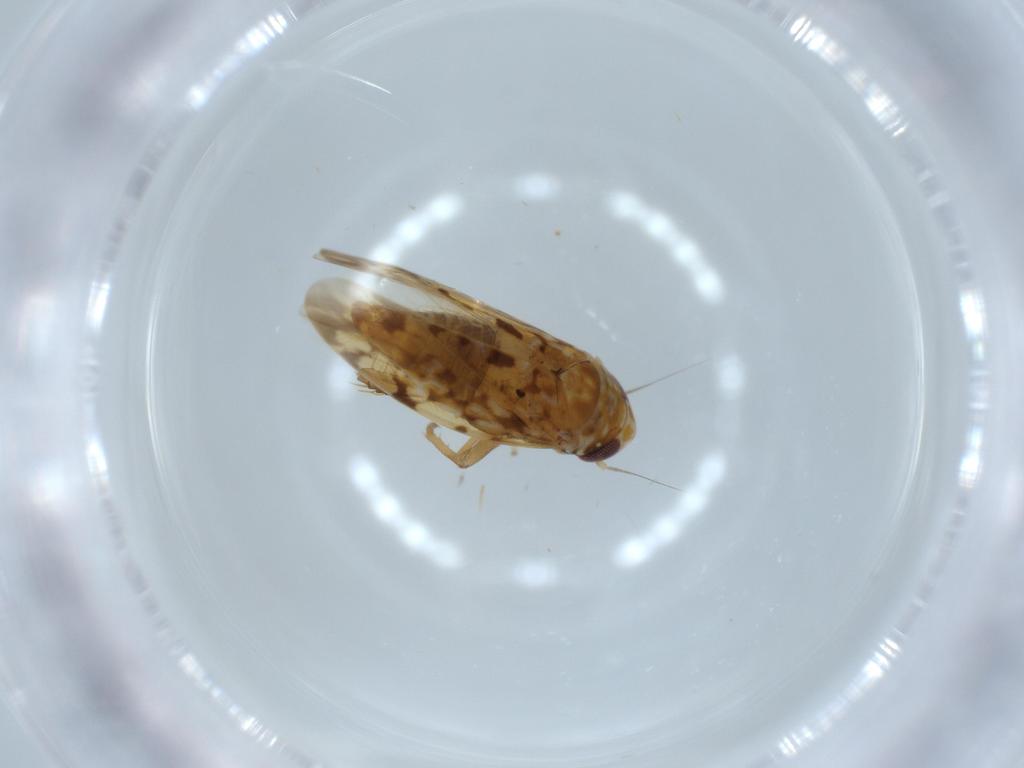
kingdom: Animalia
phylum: Arthropoda
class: Insecta
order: Hemiptera
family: Cicadellidae
